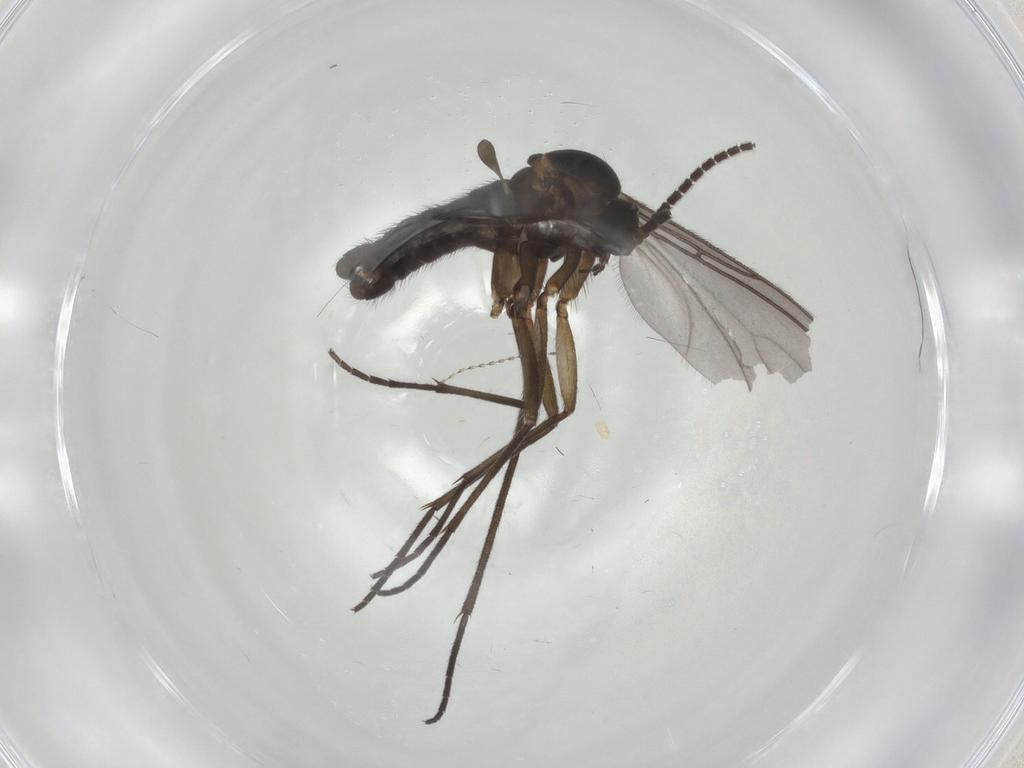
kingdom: Animalia
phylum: Arthropoda
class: Insecta
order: Diptera
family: Sciaridae
